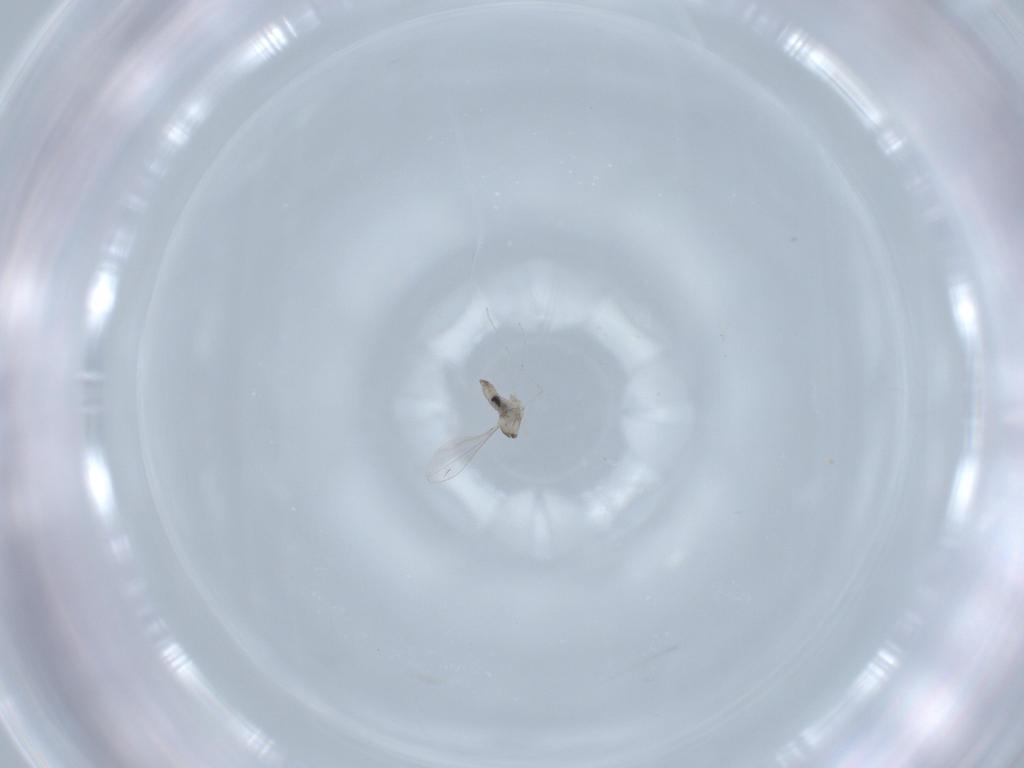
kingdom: Animalia
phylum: Arthropoda
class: Insecta
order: Diptera
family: Cecidomyiidae
